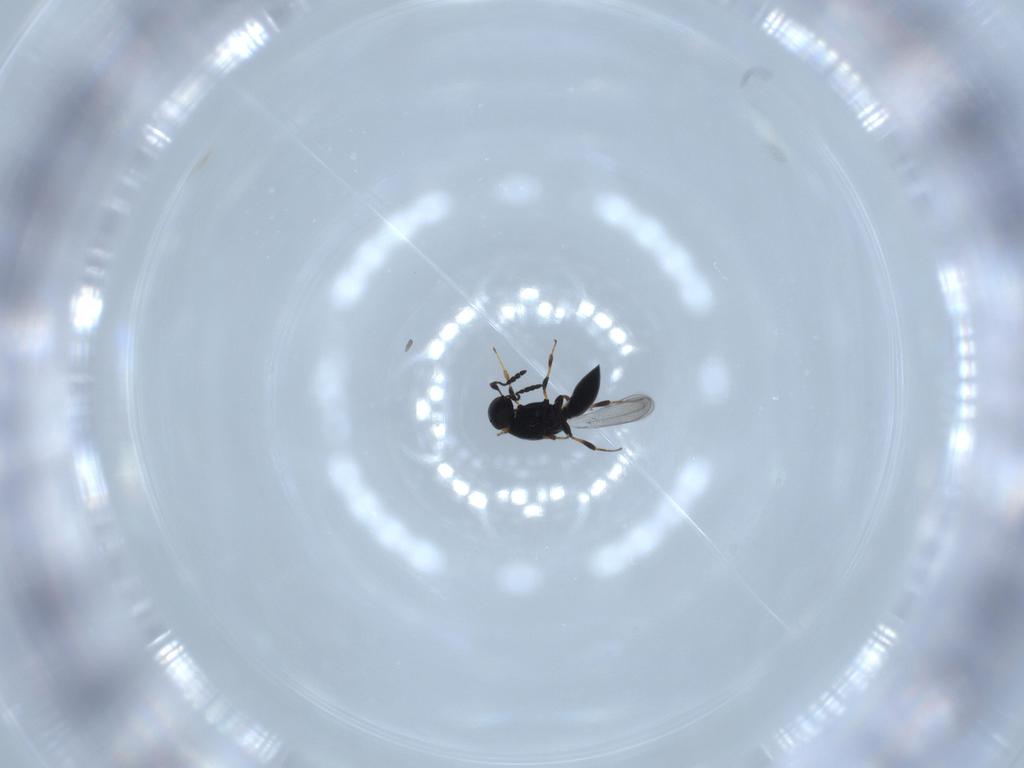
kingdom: Animalia
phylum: Arthropoda
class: Insecta
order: Hymenoptera
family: Platygastridae
